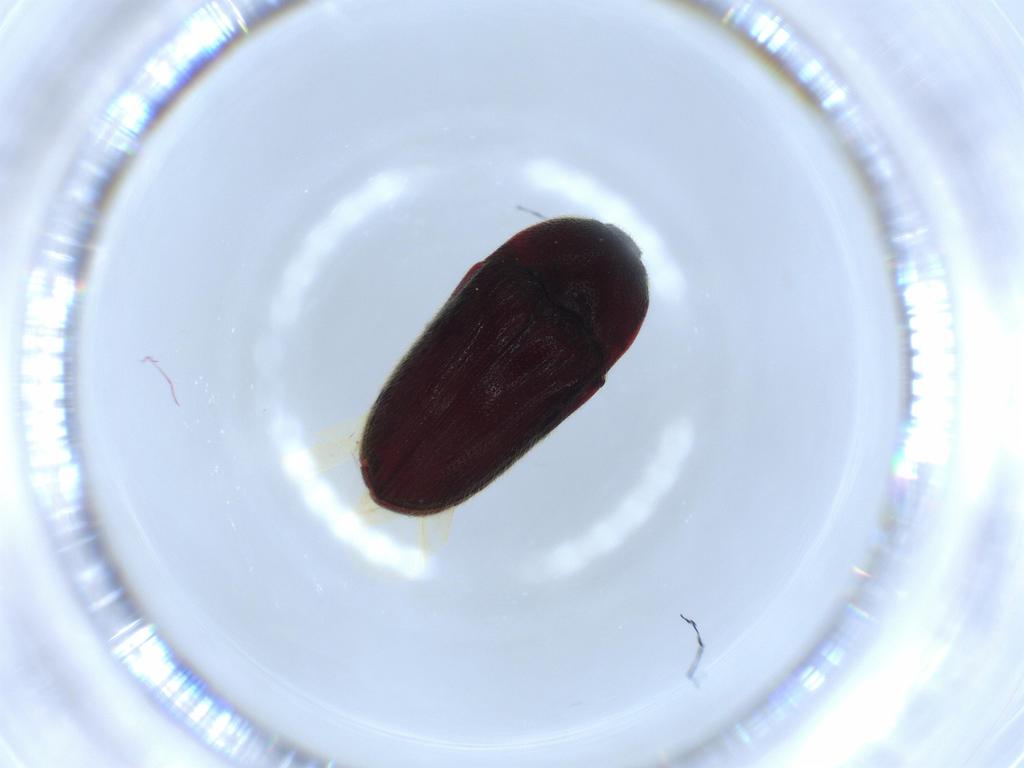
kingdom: Animalia
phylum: Arthropoda
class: Insecta
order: Coleoptera
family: Throscidae
